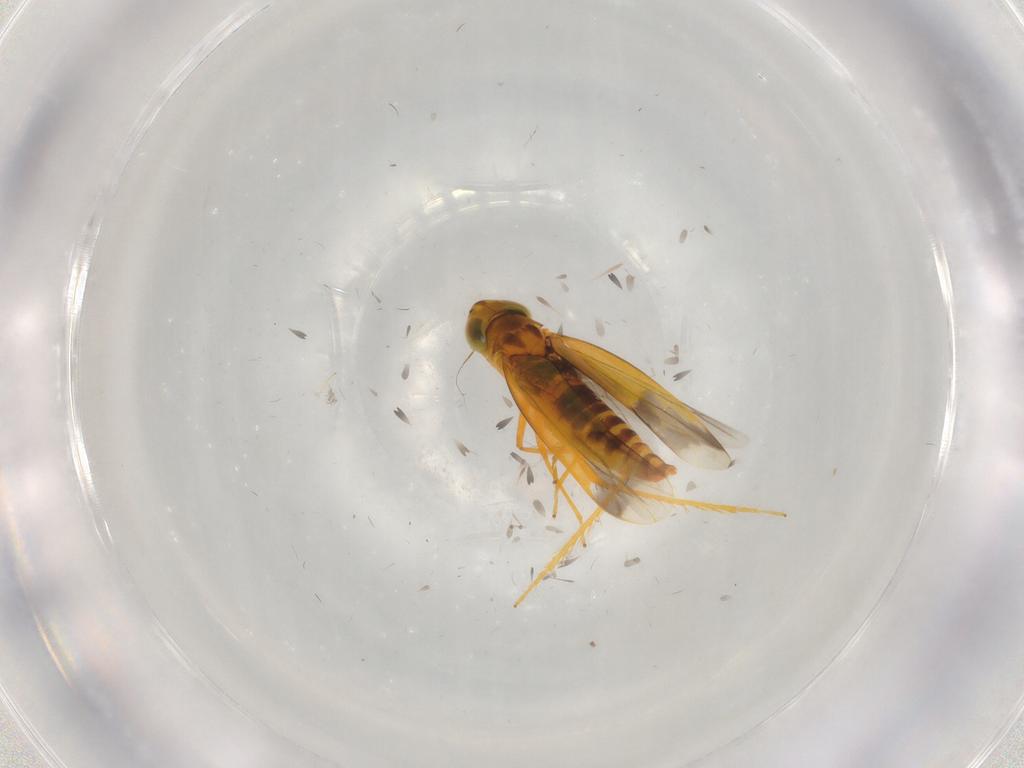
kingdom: Animalia
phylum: Arthropoda
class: Insecta
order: Hemiptera
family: Cicadellidae
